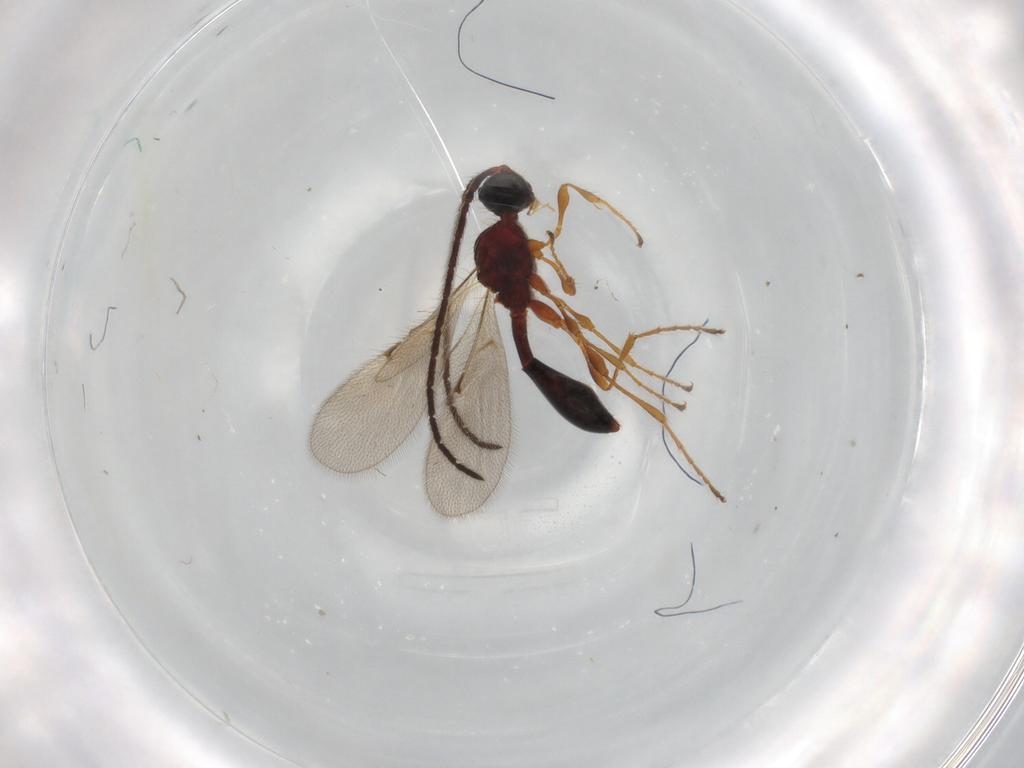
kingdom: Animalia
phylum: Arthropoda
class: Insecta
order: Hymenoptera
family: Diapriidae
